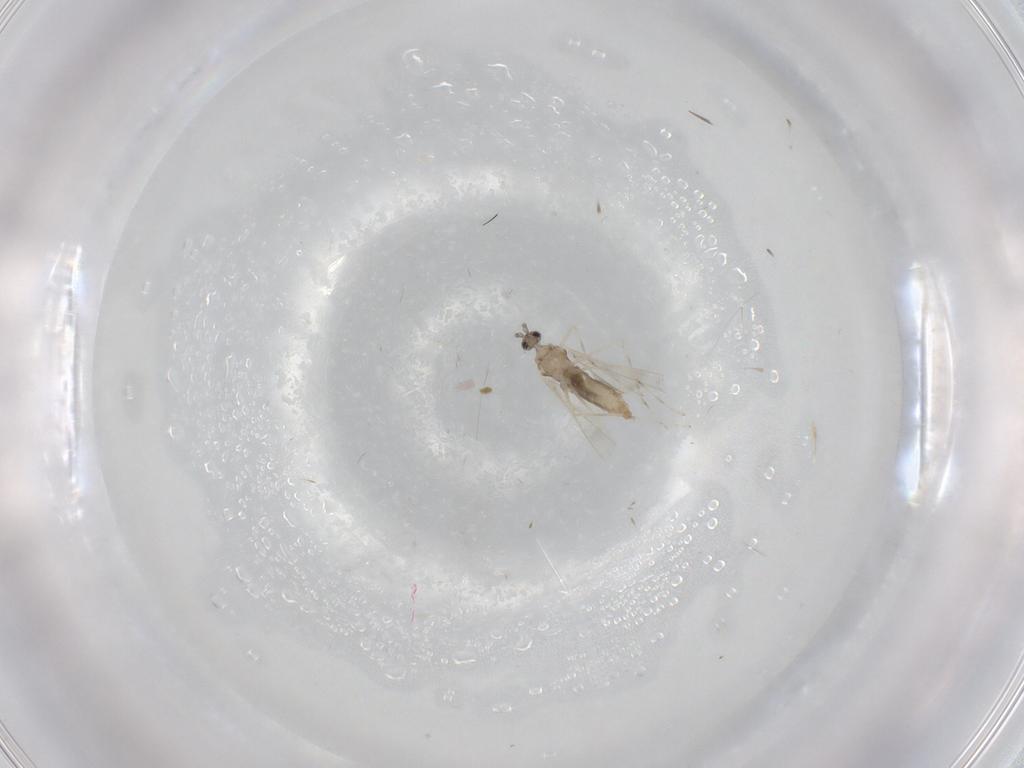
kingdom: Animalia
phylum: Arthropoda
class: Insecta
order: Diptera
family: Cecidomyiidae
